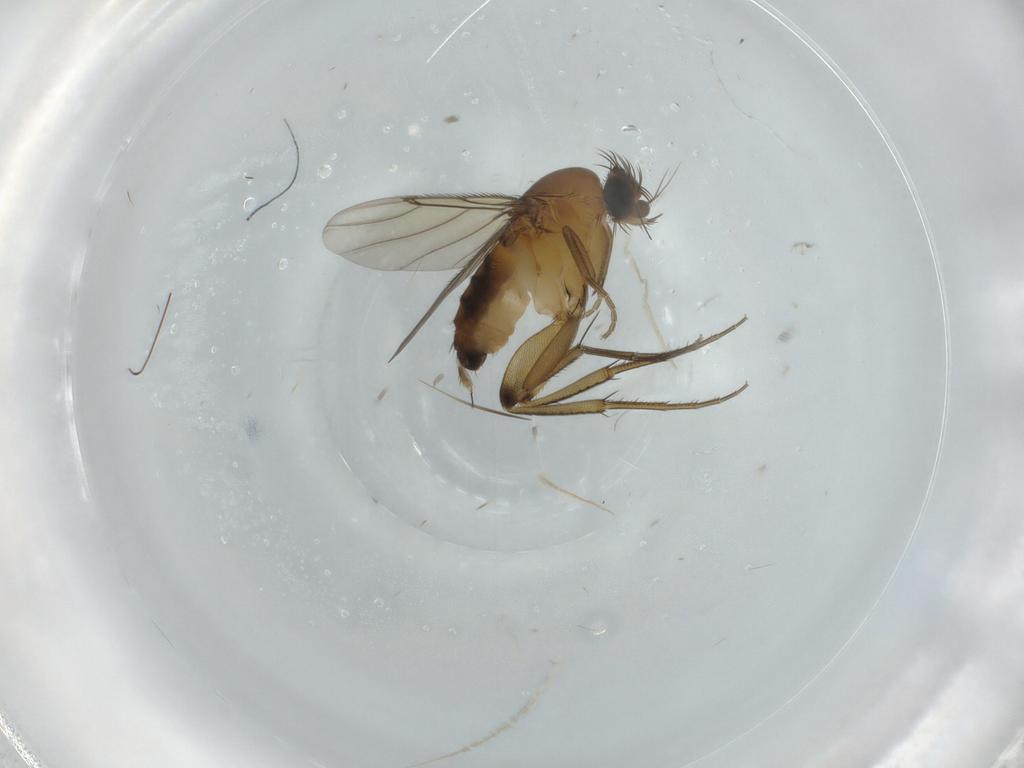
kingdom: Animalia
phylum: Arthropoda
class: Insecta
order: Diptera
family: Phoridae
